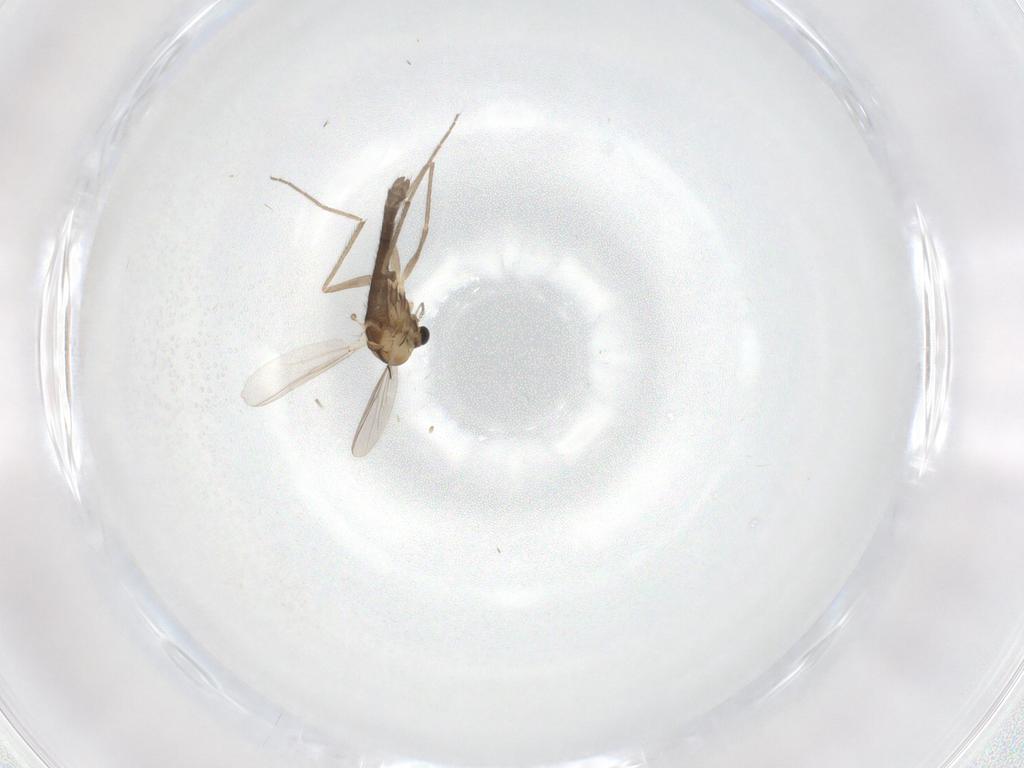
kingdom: Animalia
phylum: Arthropoda
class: Insecta
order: Diptera
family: Chironomidae
